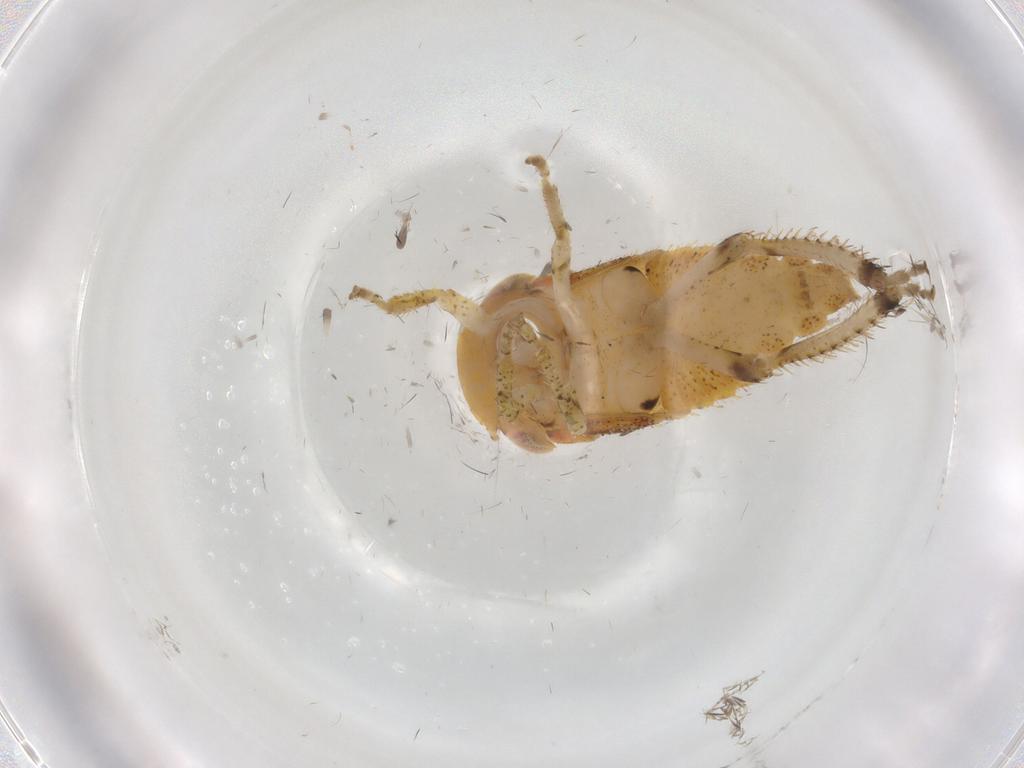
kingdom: Animalia
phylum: Arthropoda
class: Insecta
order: Hemiptera
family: Cicadellidae
